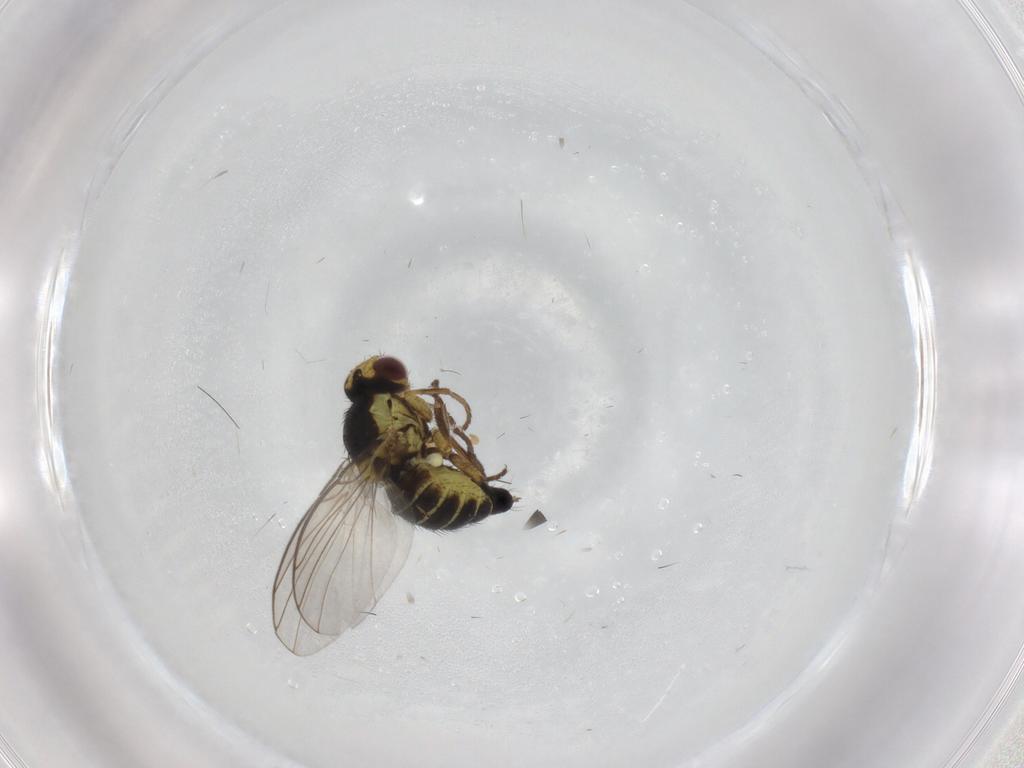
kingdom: Animalia
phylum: Arthropoda
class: Insecta
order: Diptera
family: Agromyzidae
